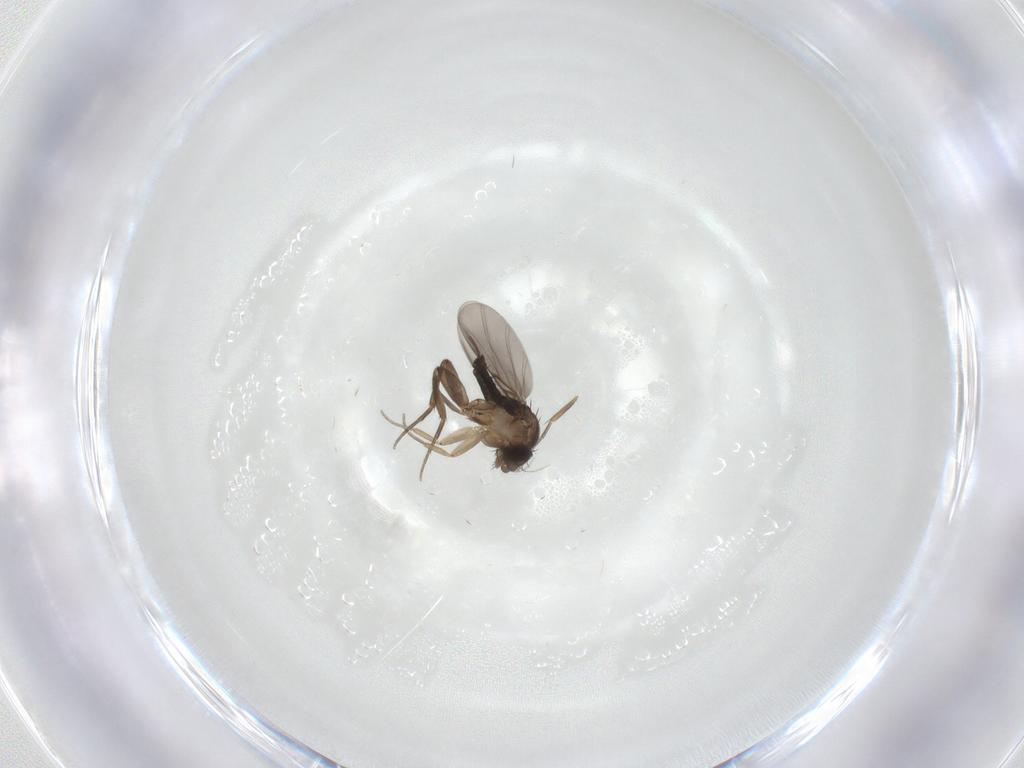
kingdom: Animalia
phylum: Arthropoda
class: Insecta
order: Diptera
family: Phoridae
